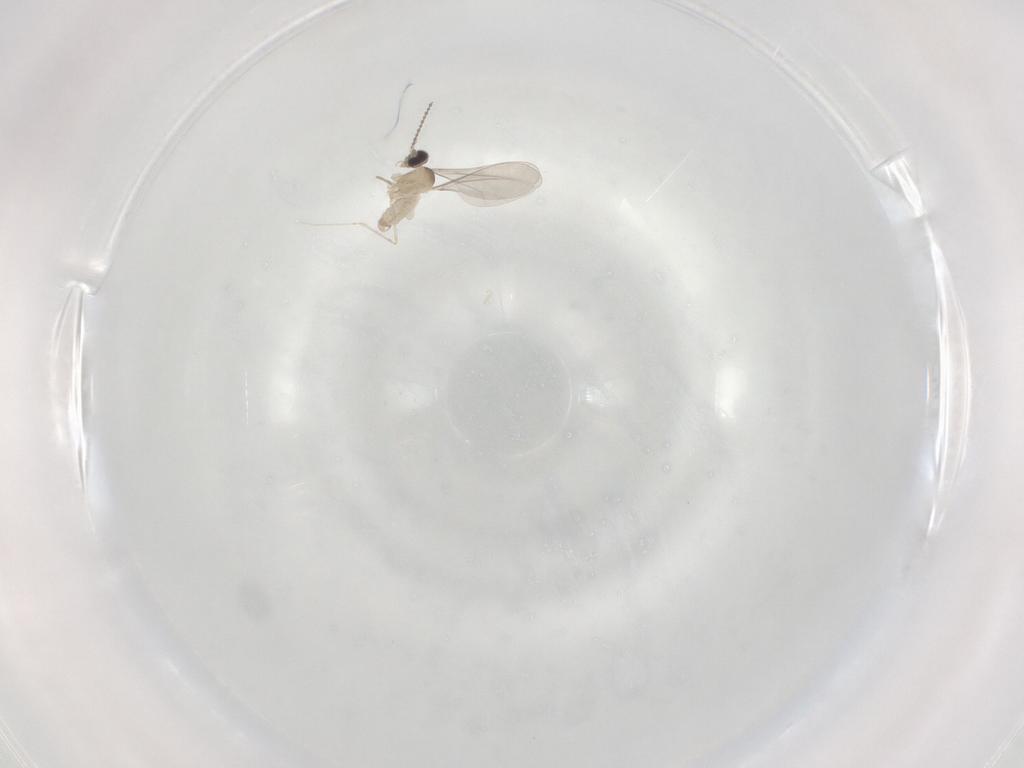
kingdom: Animalia
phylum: Arthropoda
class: Insecta
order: Diptera
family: Cecidomyiidae
